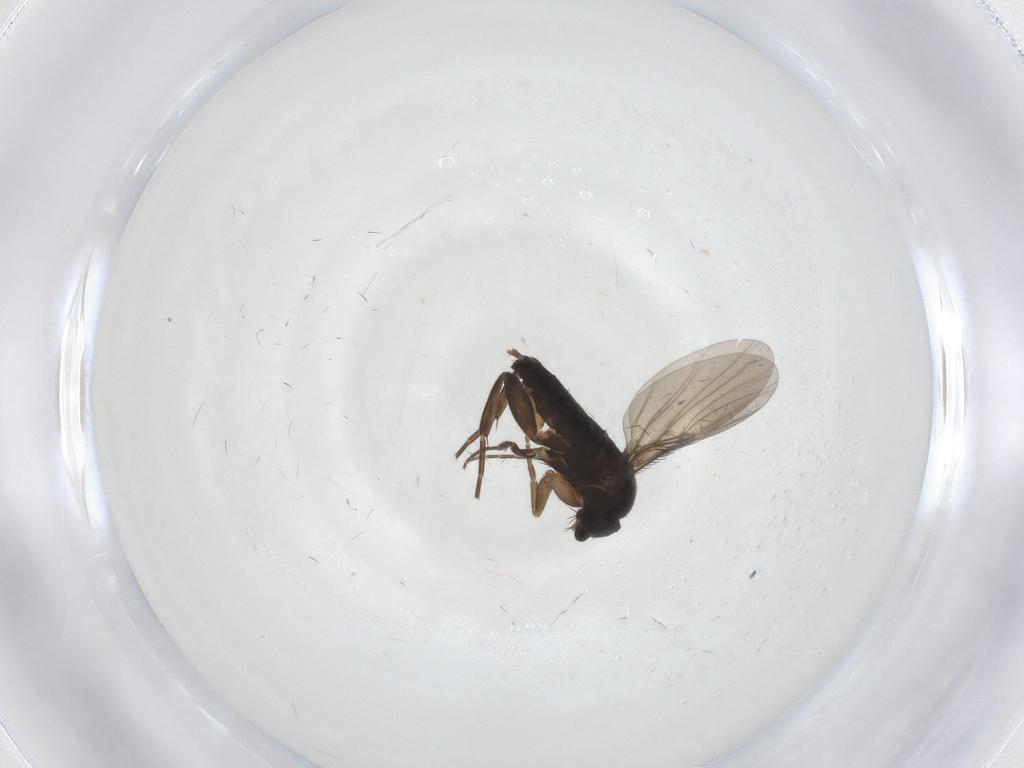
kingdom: Animalia
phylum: Arthropoda
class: Insecta
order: Diptera
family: Phoridae
